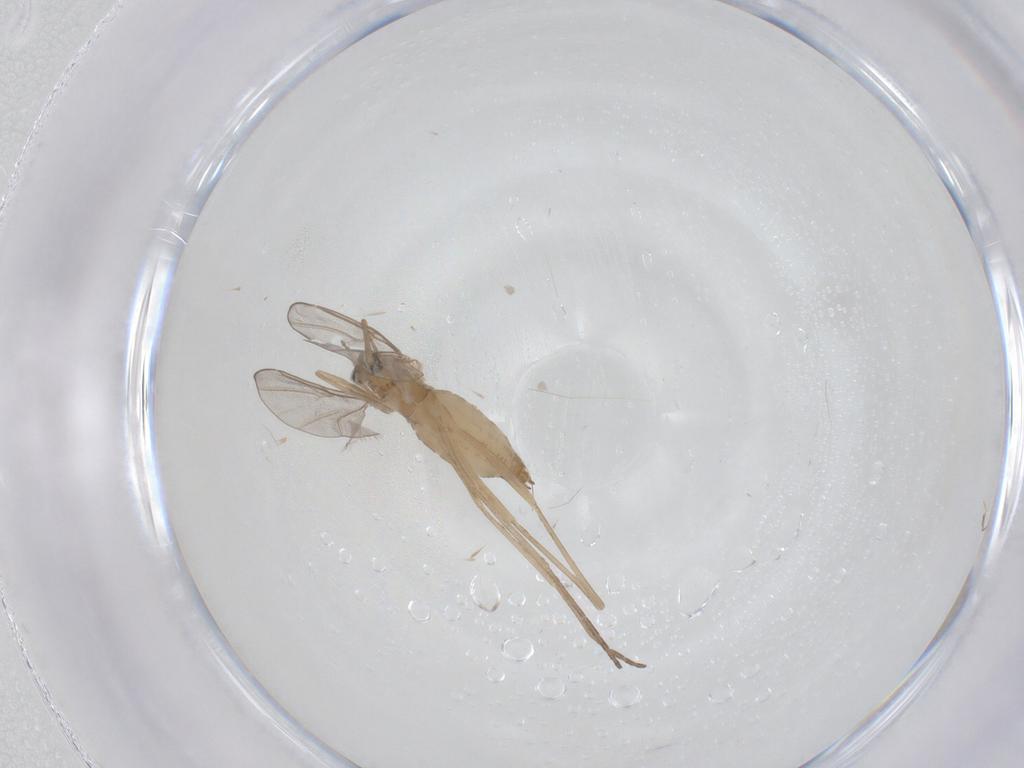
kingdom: Animalia
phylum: Arthropoda
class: Insecta
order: Diptera
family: Cecidomyiidae
